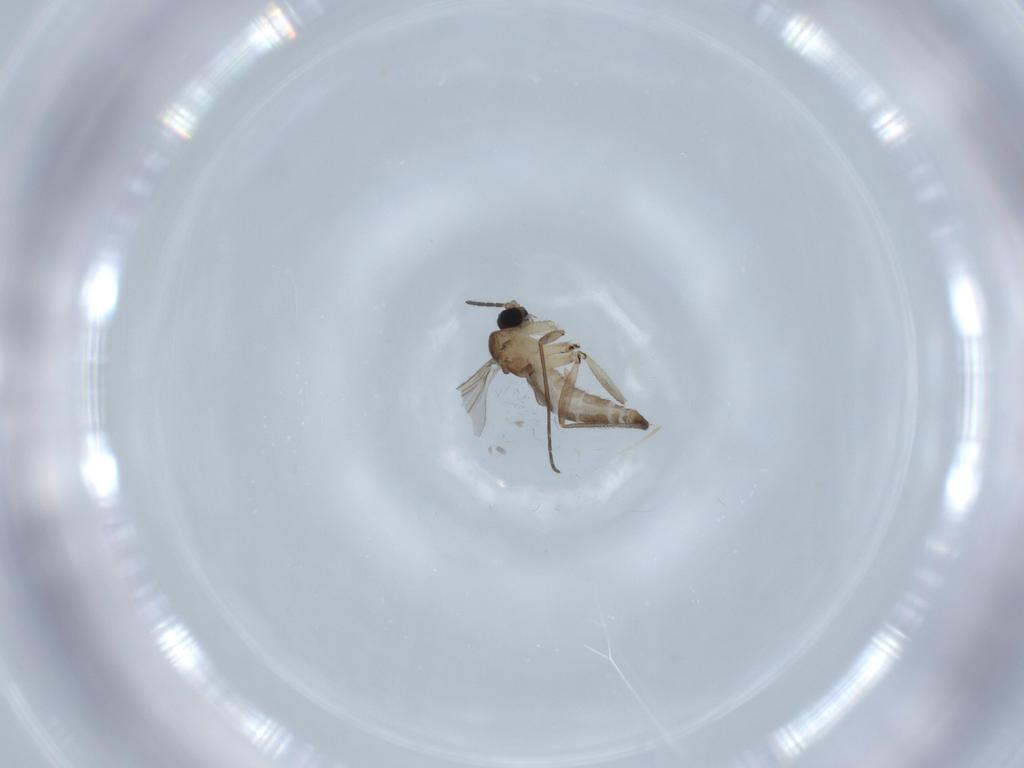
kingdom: Animalia
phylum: Arthropoda
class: Insecta
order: Diptera
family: Sciaridae
